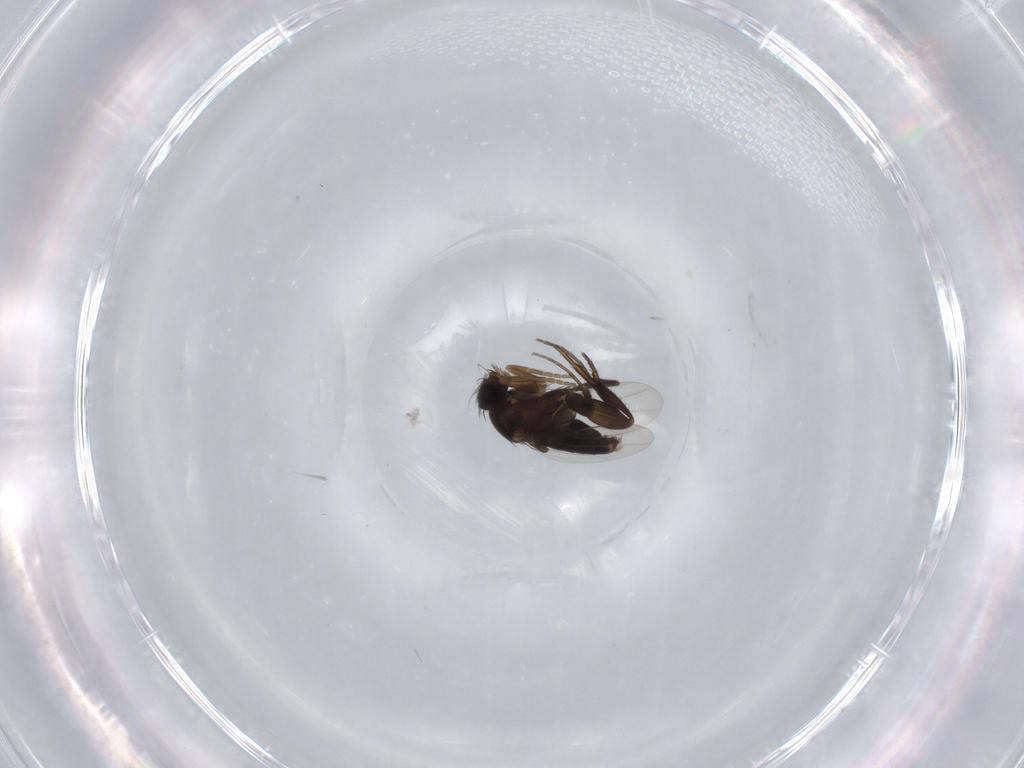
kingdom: Animalia
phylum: Arthropoda
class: Insecta
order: Diptera
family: Phoridae
